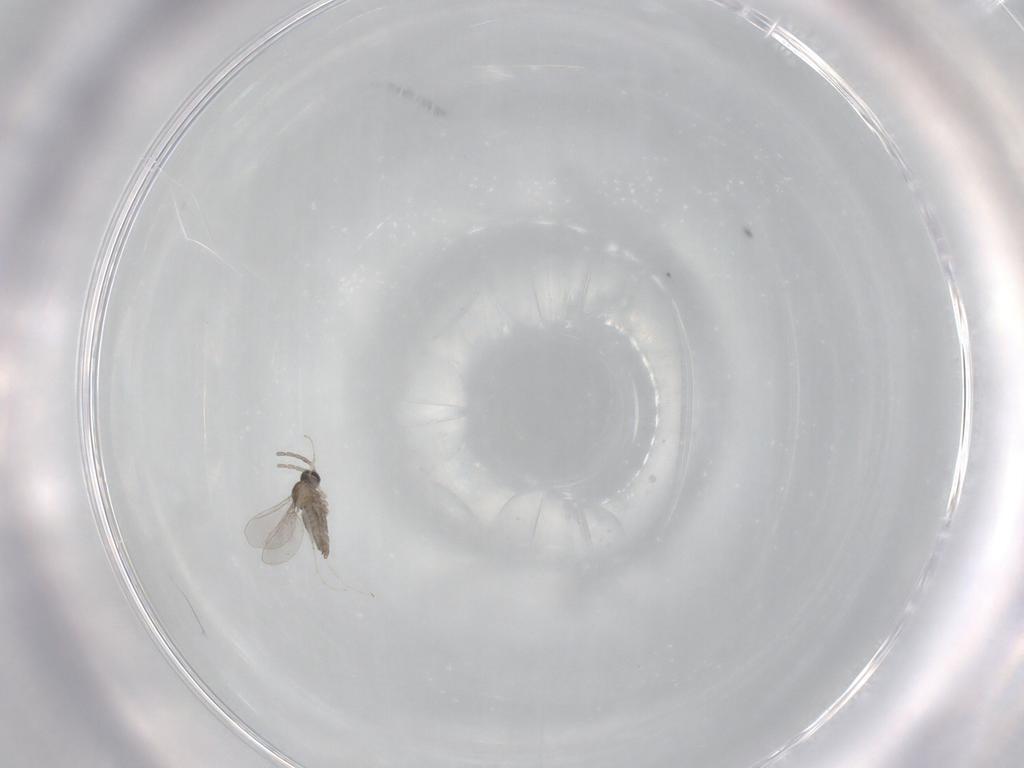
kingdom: Animalia
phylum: Arthropoda
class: Insecta
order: Diptera
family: Cecidomyiidae
